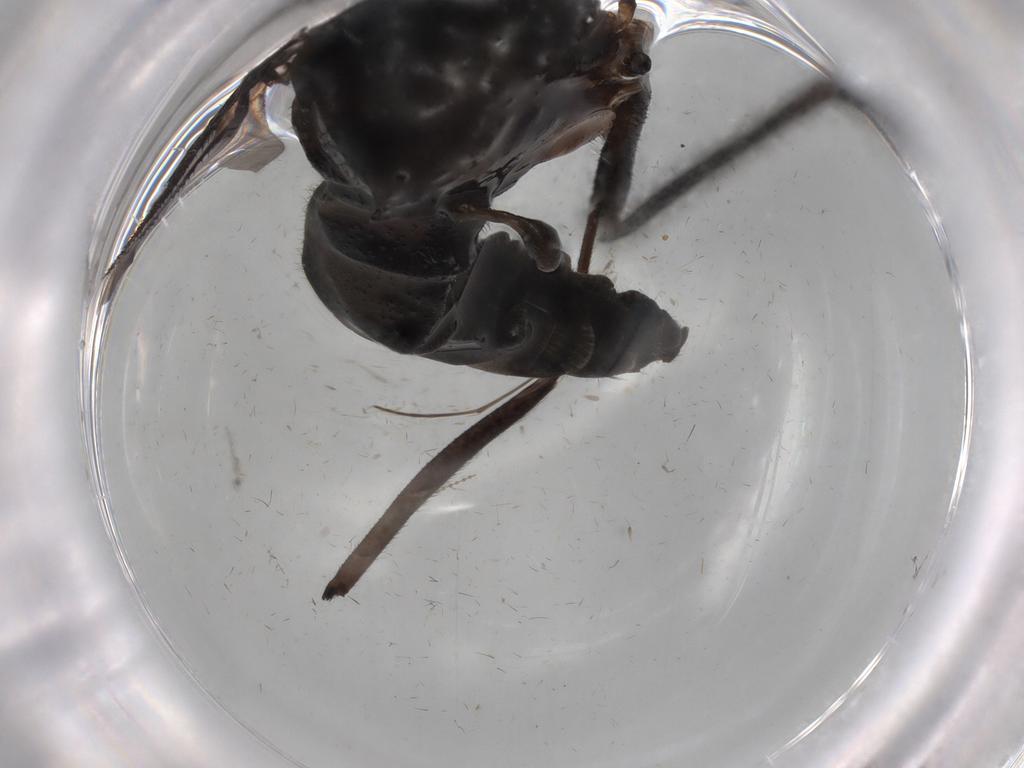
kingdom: Animalia
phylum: Arthropoda
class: Insecta
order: Diptera
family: Sciaridae
